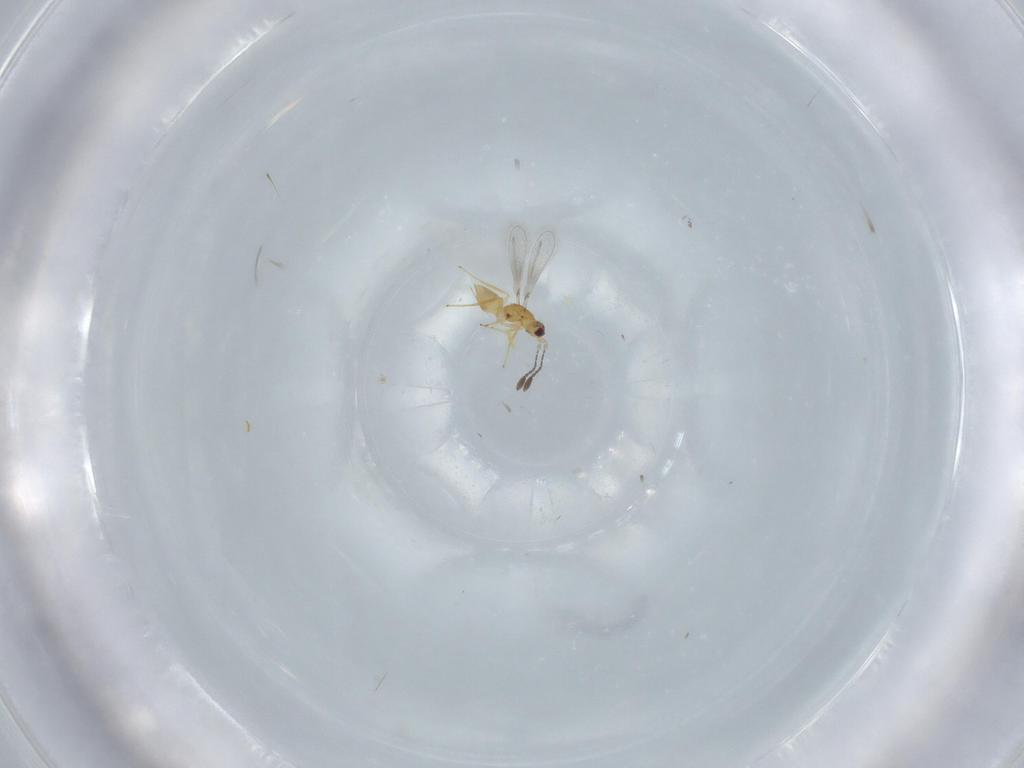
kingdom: Animalia
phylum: Arthropoda
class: Insecta
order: Hymenoptera
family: Mymaridae
